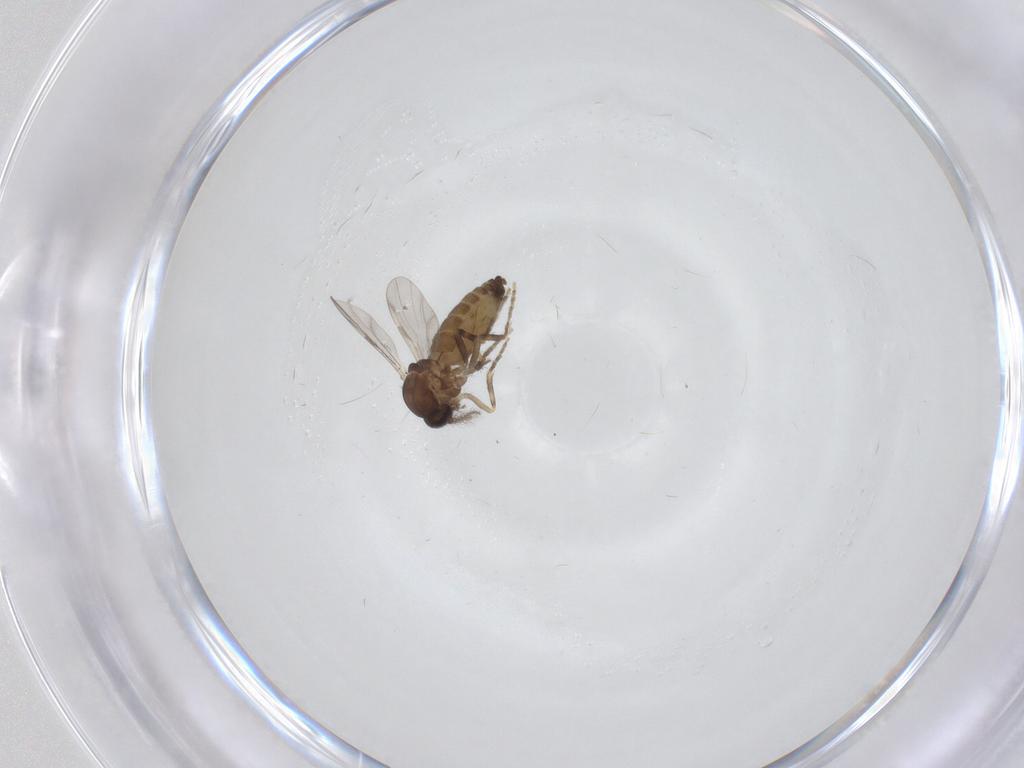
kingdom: Animalia
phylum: Arthropoda
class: Insecta
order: Diptera
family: Ceratopogonidae
